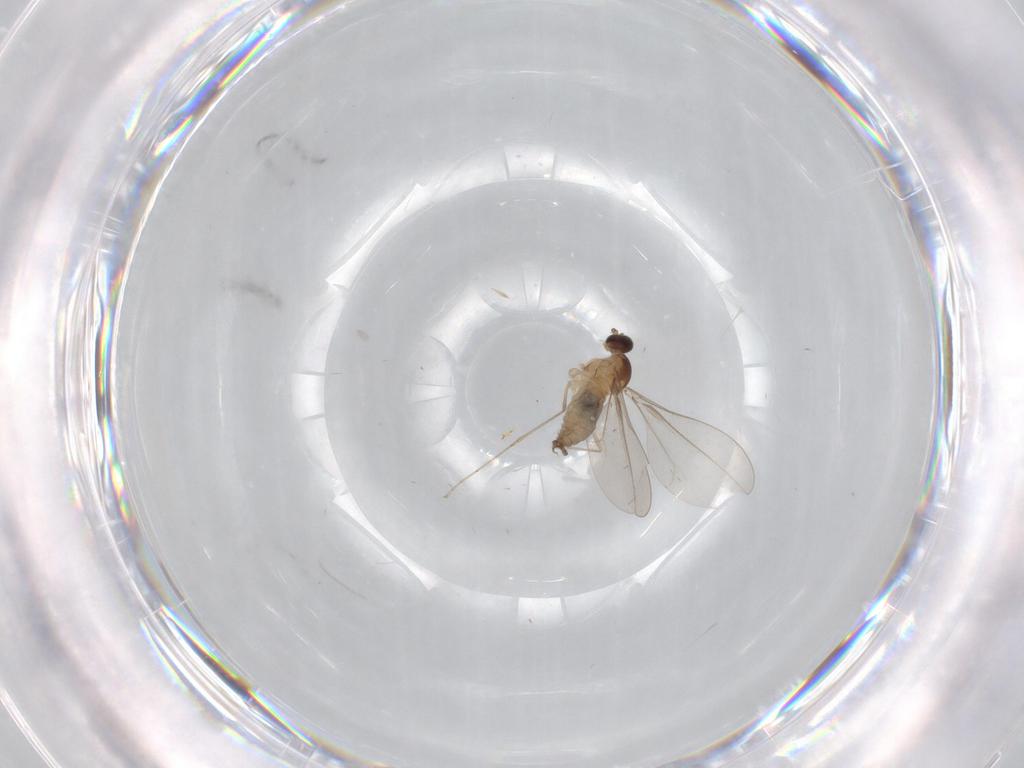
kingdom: Animalia
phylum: Arthropoda
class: Insecta
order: Diptera
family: Cecidomyiidae
